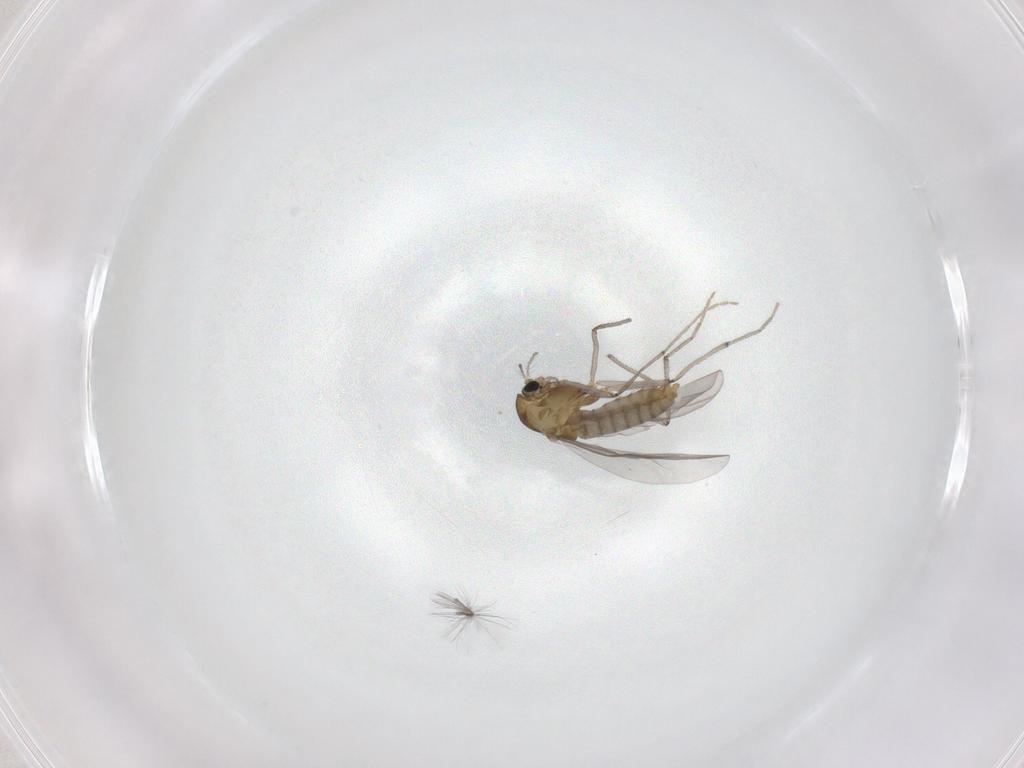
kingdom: Animalia
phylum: Arthropoda
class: Insecta
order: Diptera
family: Chironomidae
